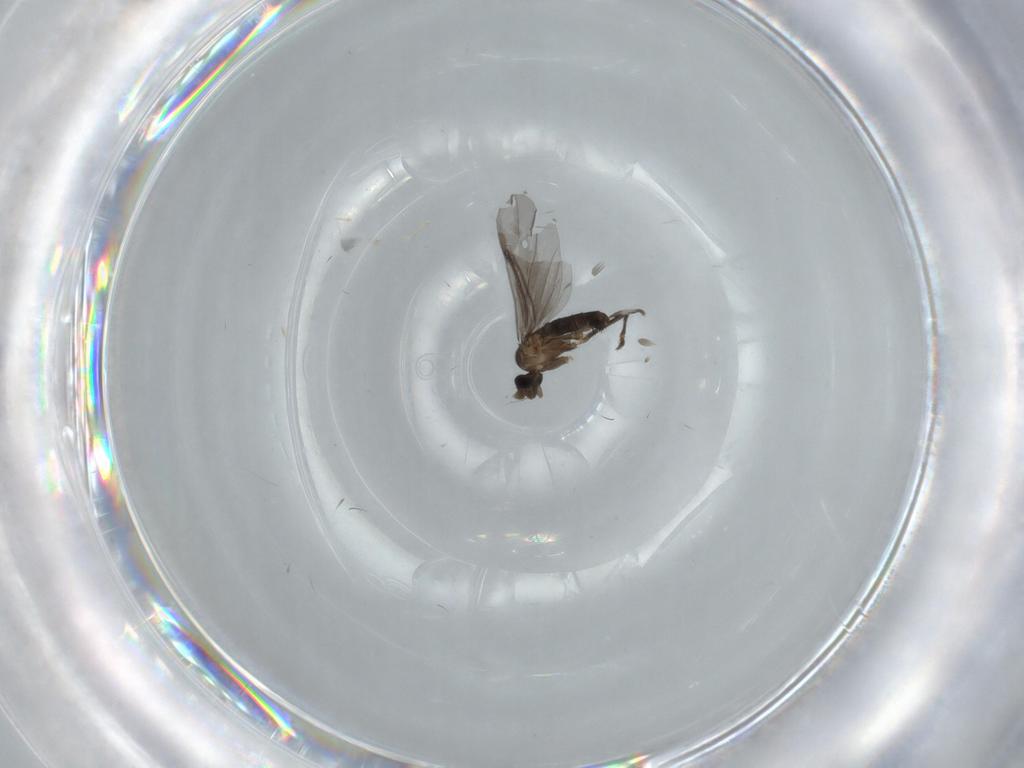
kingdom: Animalia
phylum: Arthropoda
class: Insecta
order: Diptera
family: Phoridae
